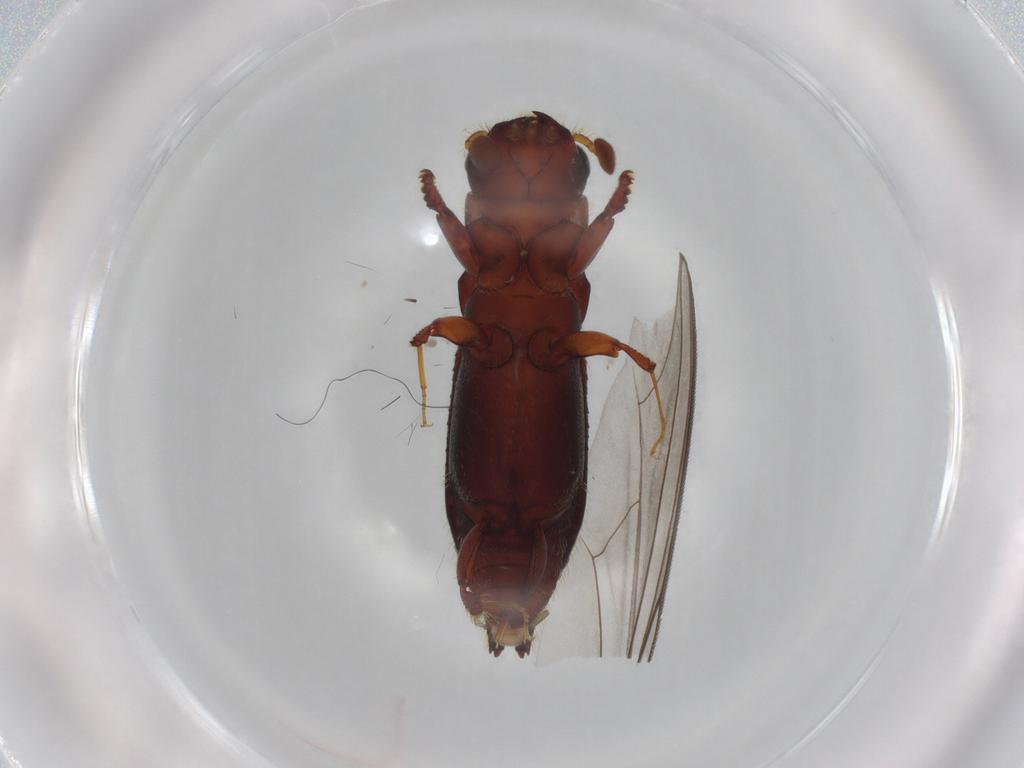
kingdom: Animalia
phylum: Arthropoda
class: Insecta
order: Coleoptera
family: Curculionidae
